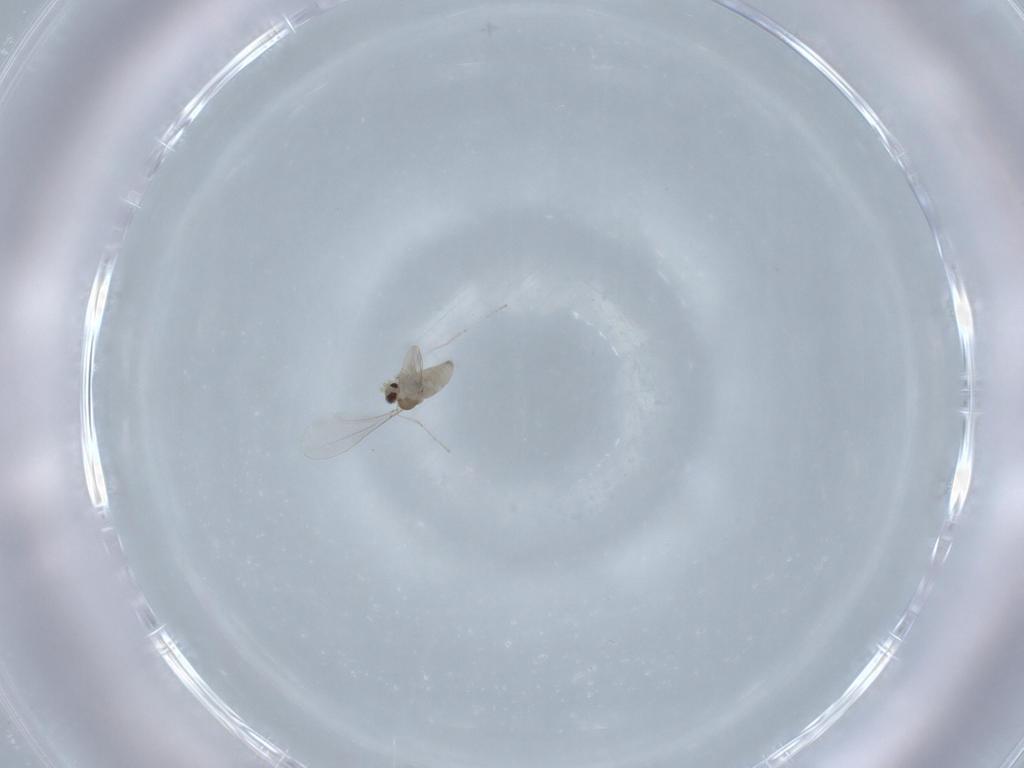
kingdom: Animalia
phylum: Arthropoda
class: Insecta
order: Diptera
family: Cecidomyiidae
